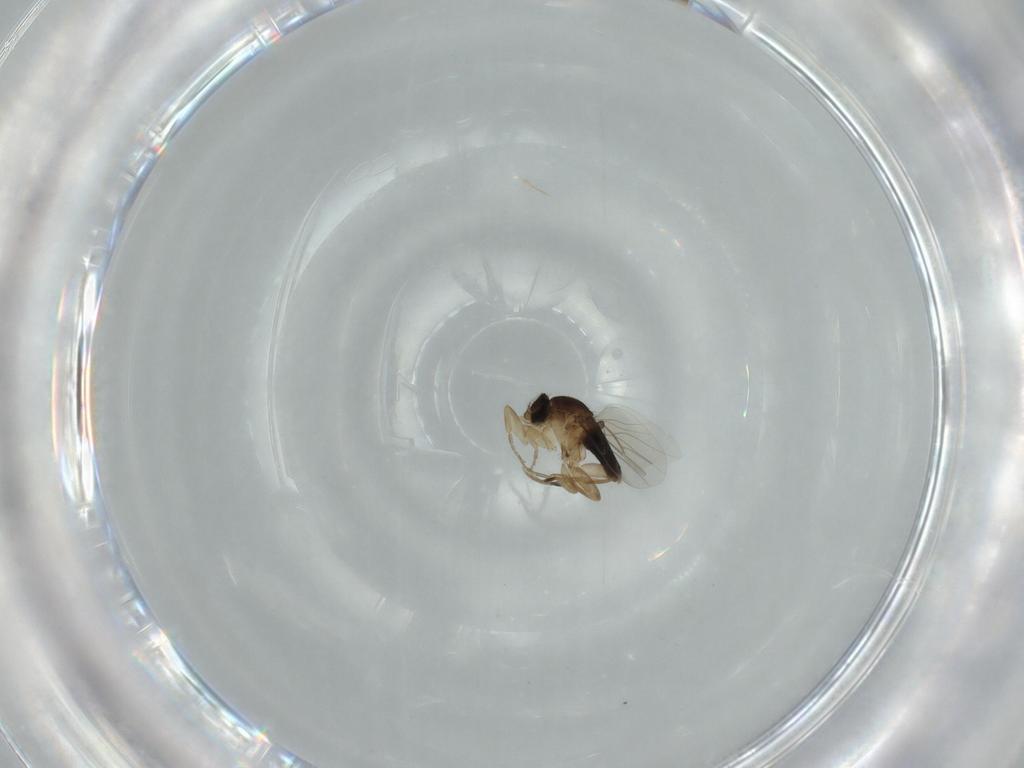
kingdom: Animalia
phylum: Arthropoda
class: Insecta
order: Diptera
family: Phoridae
